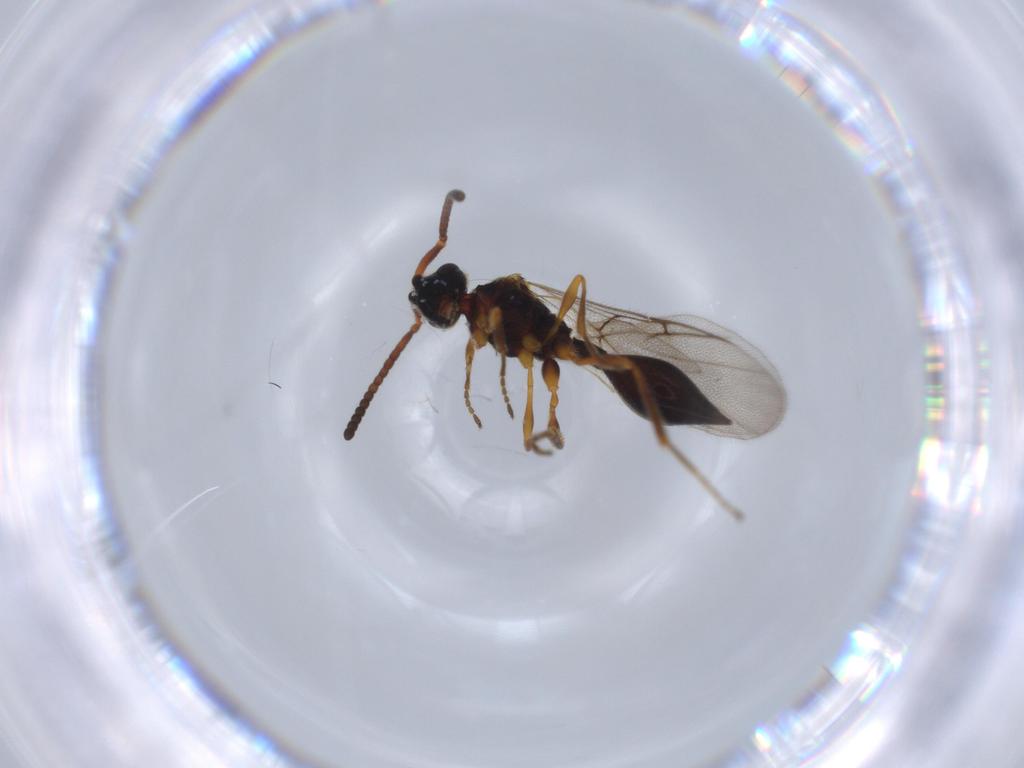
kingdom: Animalia
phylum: Arthropoda
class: Insecta
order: Hymenoptera
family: Diapriidae
